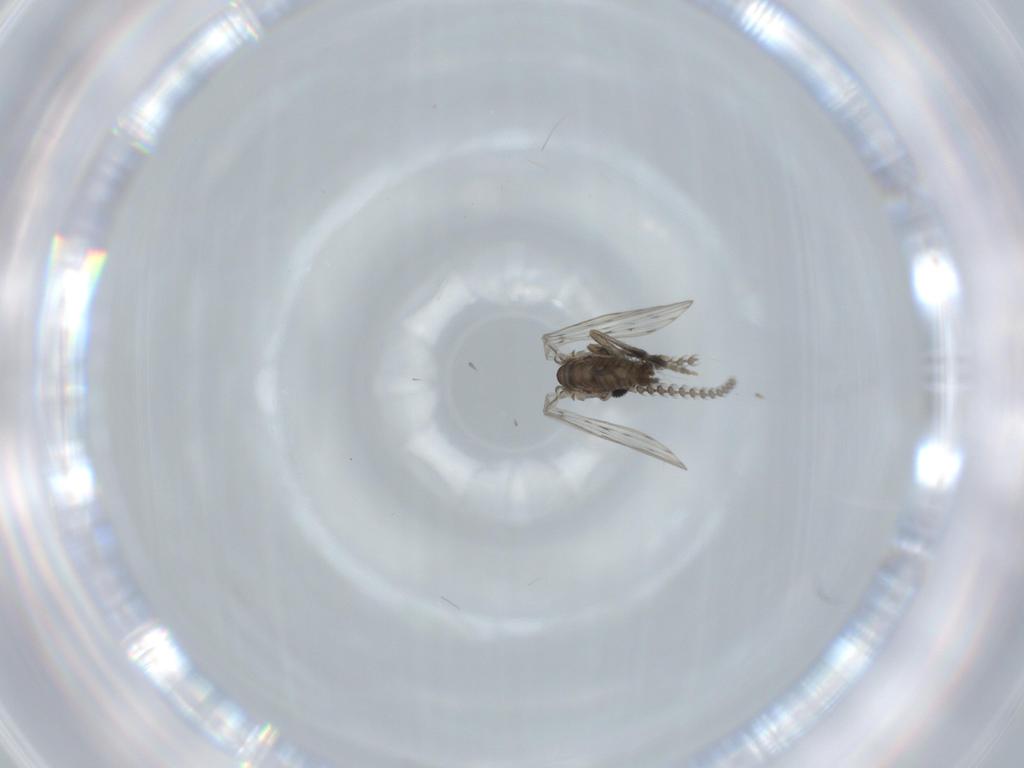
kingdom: Animalia
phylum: Arthropoda
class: Insecta
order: Diptera
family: Psychodidae
